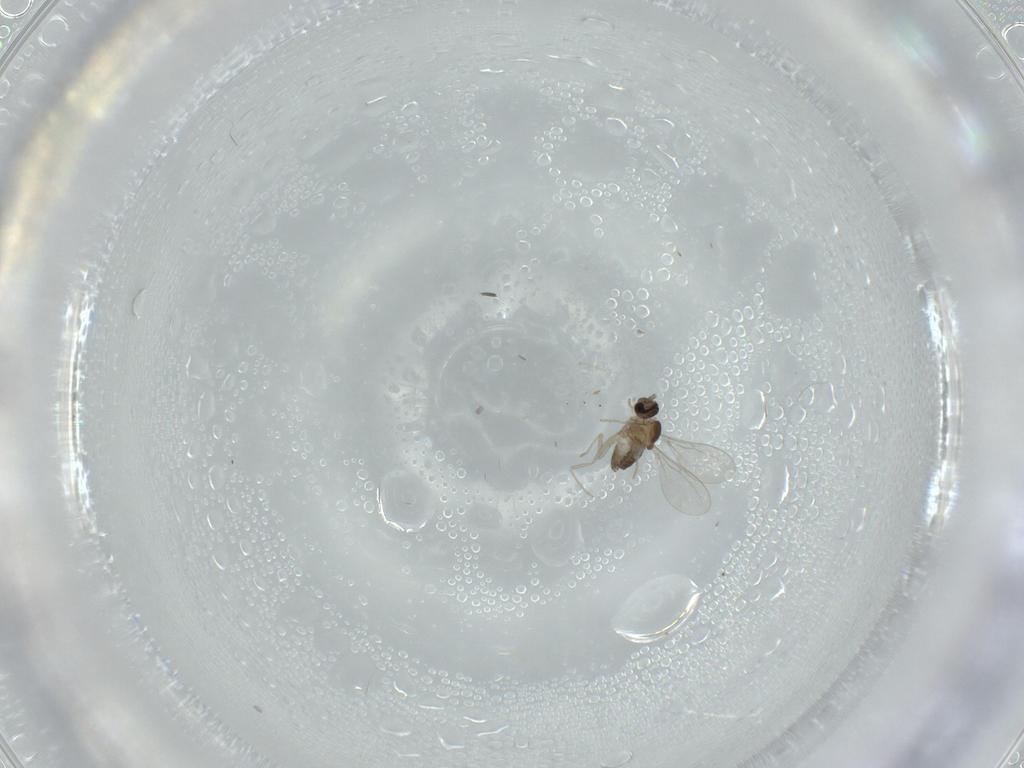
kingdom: Animalia
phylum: Arthropoda
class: Insecta
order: Diptera
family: Cecidomyiidae
